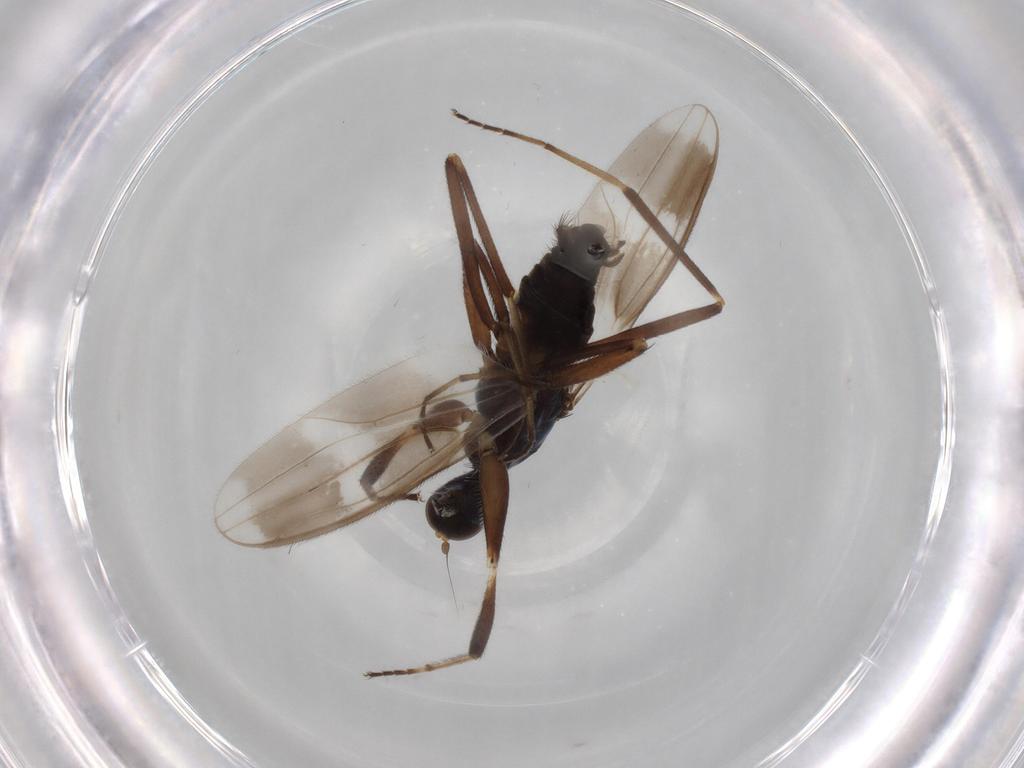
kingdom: Animalia
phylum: Arthropoda
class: Insecta
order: Diptera
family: Hybotidae
